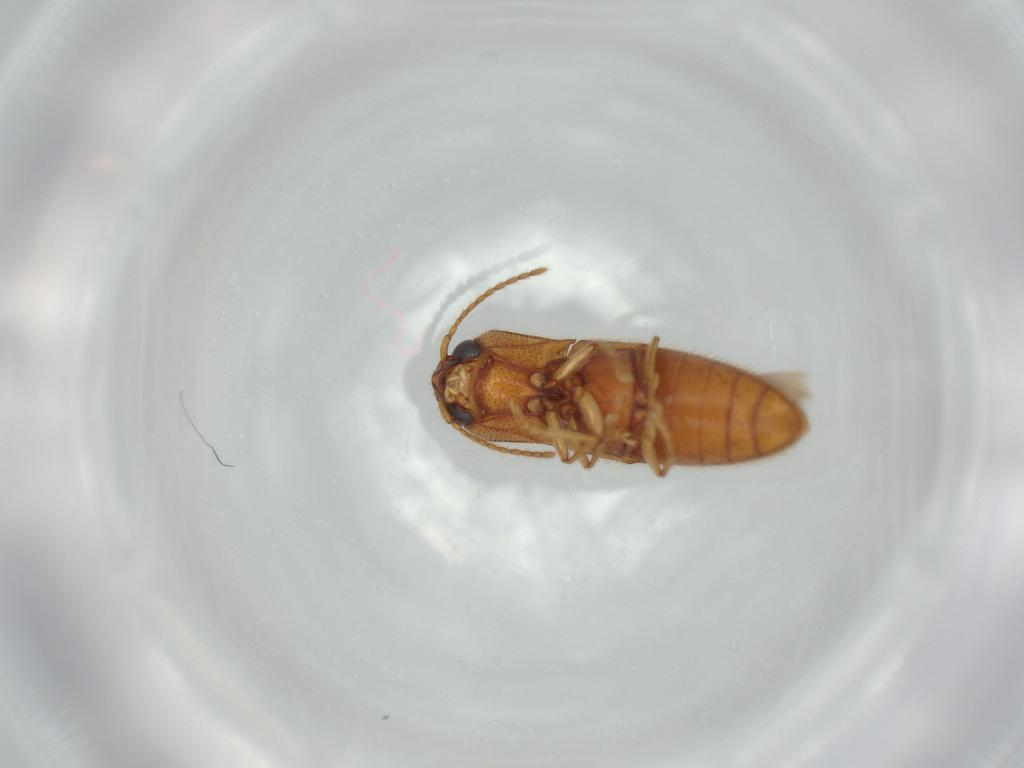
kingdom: Animalia
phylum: Arthropoda
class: Insecta
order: Coleoptera
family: Elateridae
